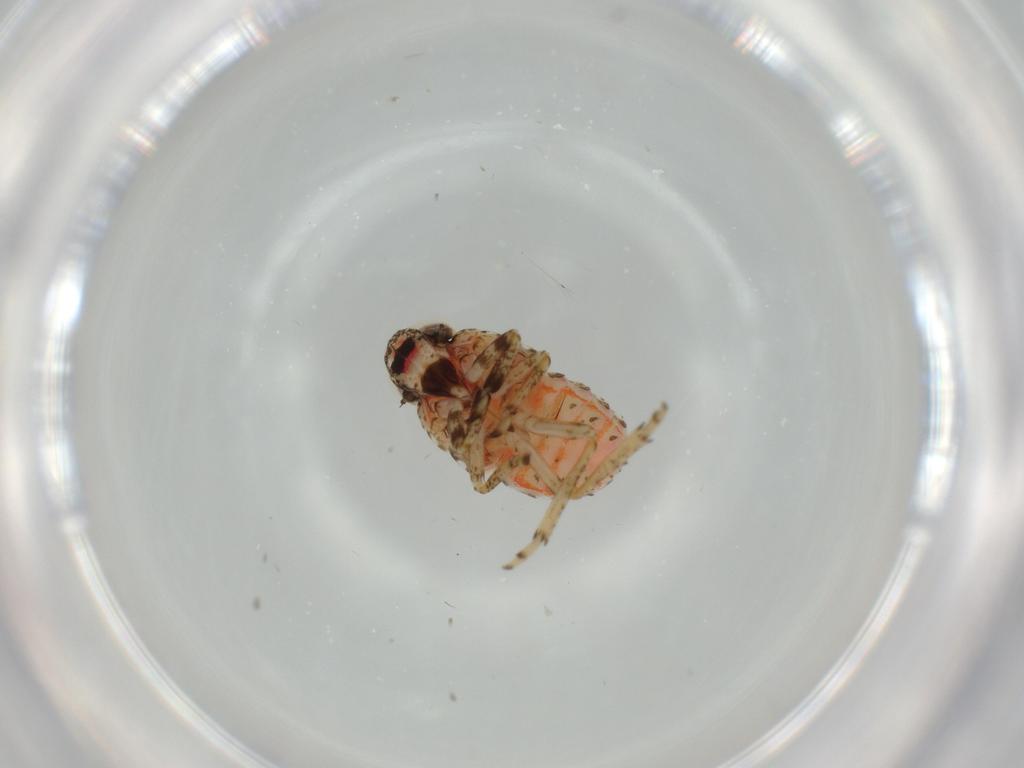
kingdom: Animalia
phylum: Arthropoda
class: Insecta
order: Hemiptera
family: Issidae
